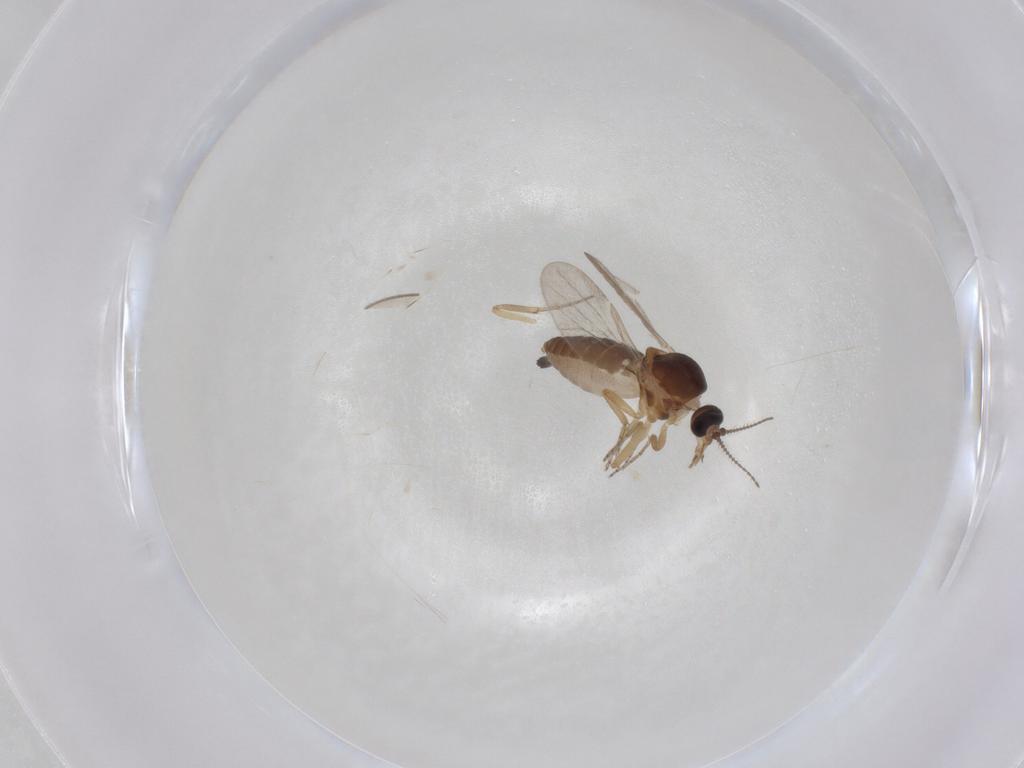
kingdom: Animalia
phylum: Arthropoda
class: Insecta
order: Diptera
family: Ceratopogonidae
